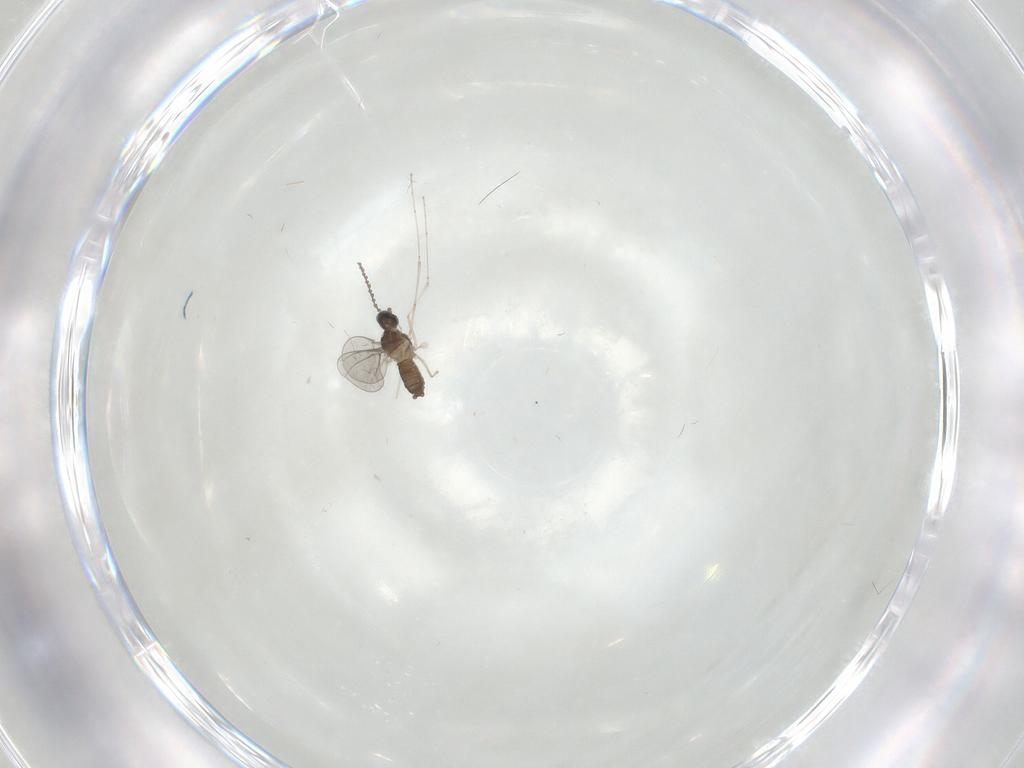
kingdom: Animalia
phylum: Arthropoda
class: Insecta
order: Diptera
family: Cecidomyiidae
